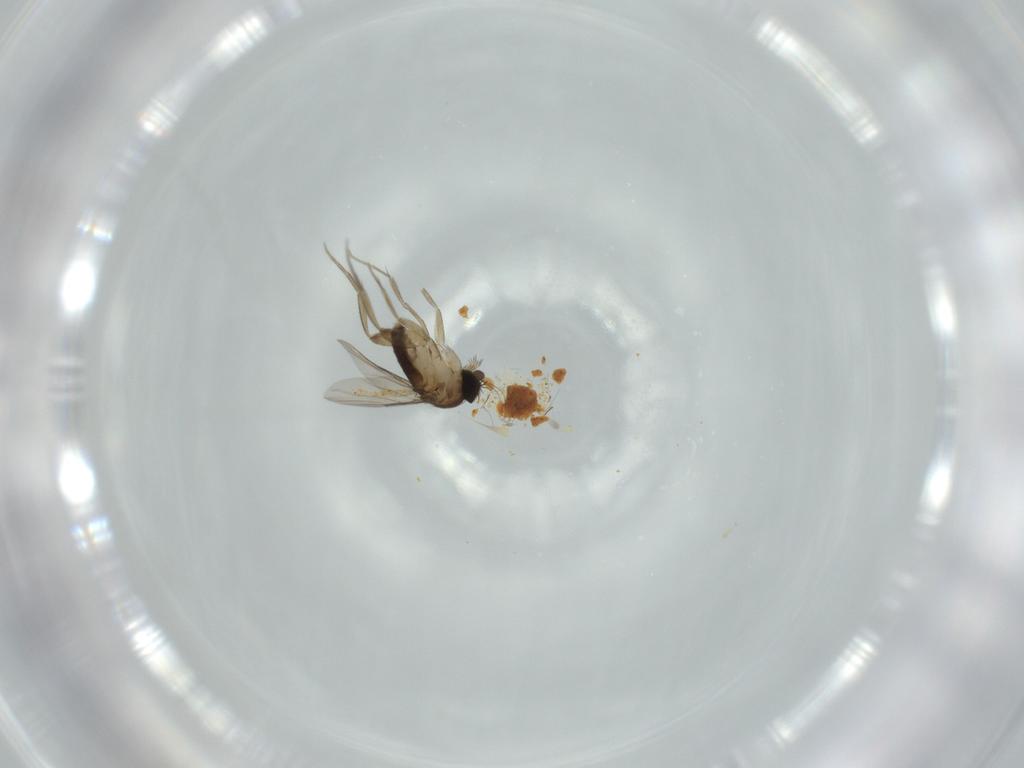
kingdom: Animalia
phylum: Arthropoda
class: Insecta
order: Diptera
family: Phoridae
